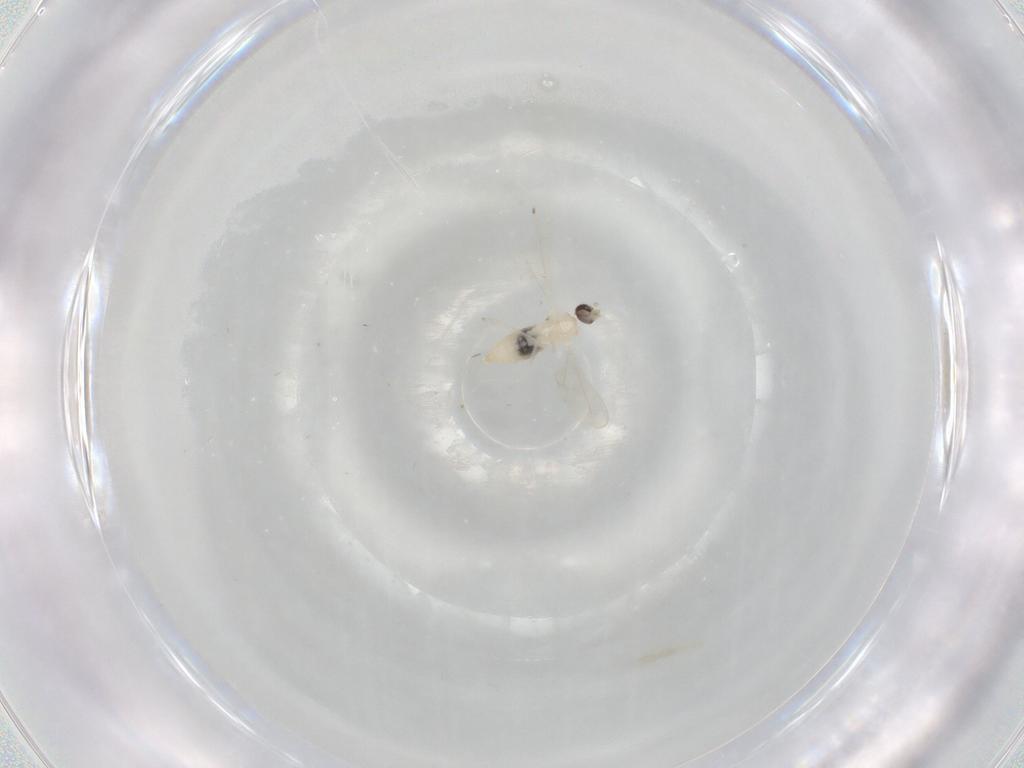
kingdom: Animalia
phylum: Arthropoda
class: Insecta
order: Diptera
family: Cecidomyiidae
